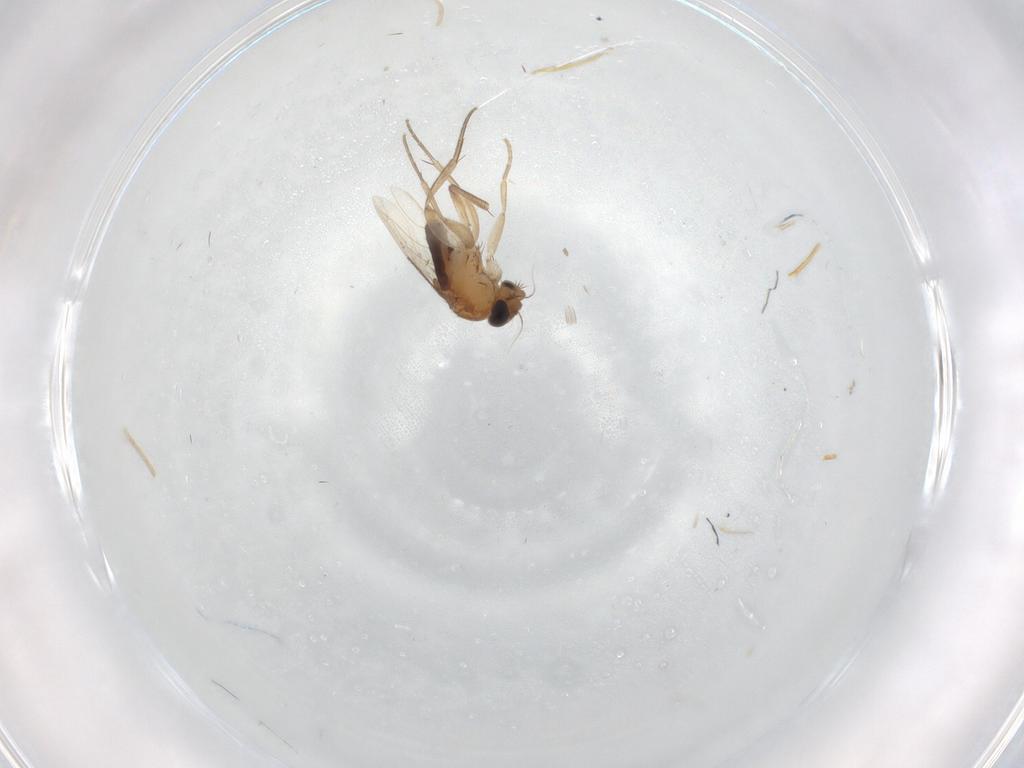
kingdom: Animalia
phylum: Arthropoda
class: Insecta
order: Diptera
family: Phoridae
